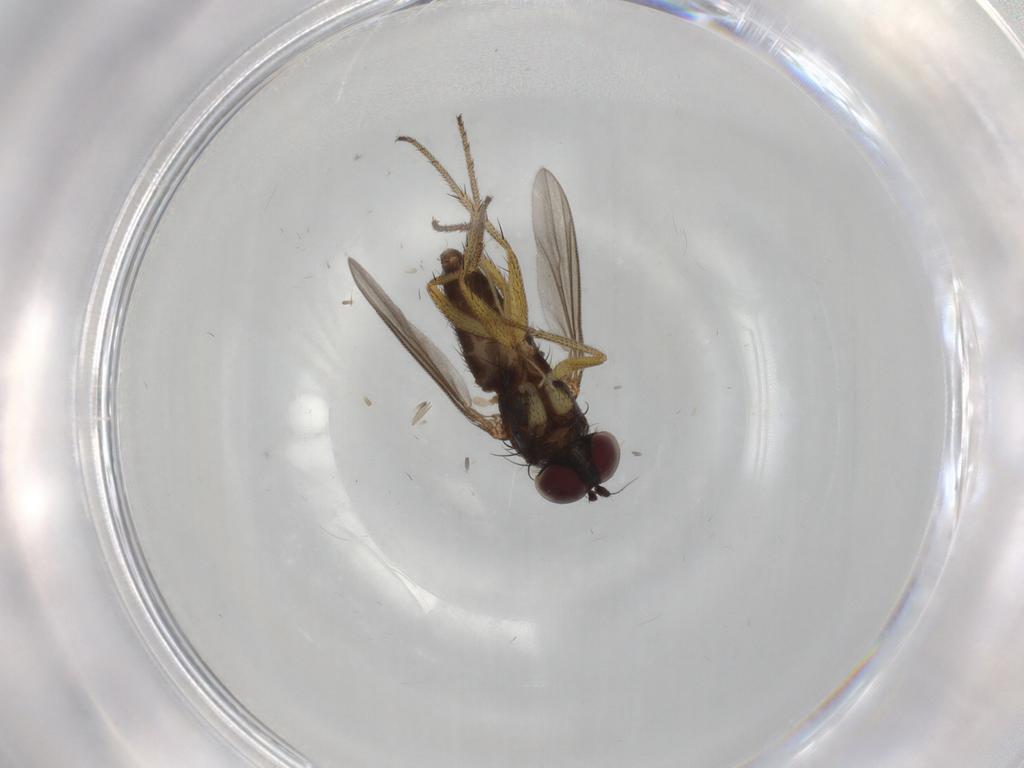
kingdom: Animalia
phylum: Arthropoda
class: Insecta
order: Diptera
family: Dolichopodidae
